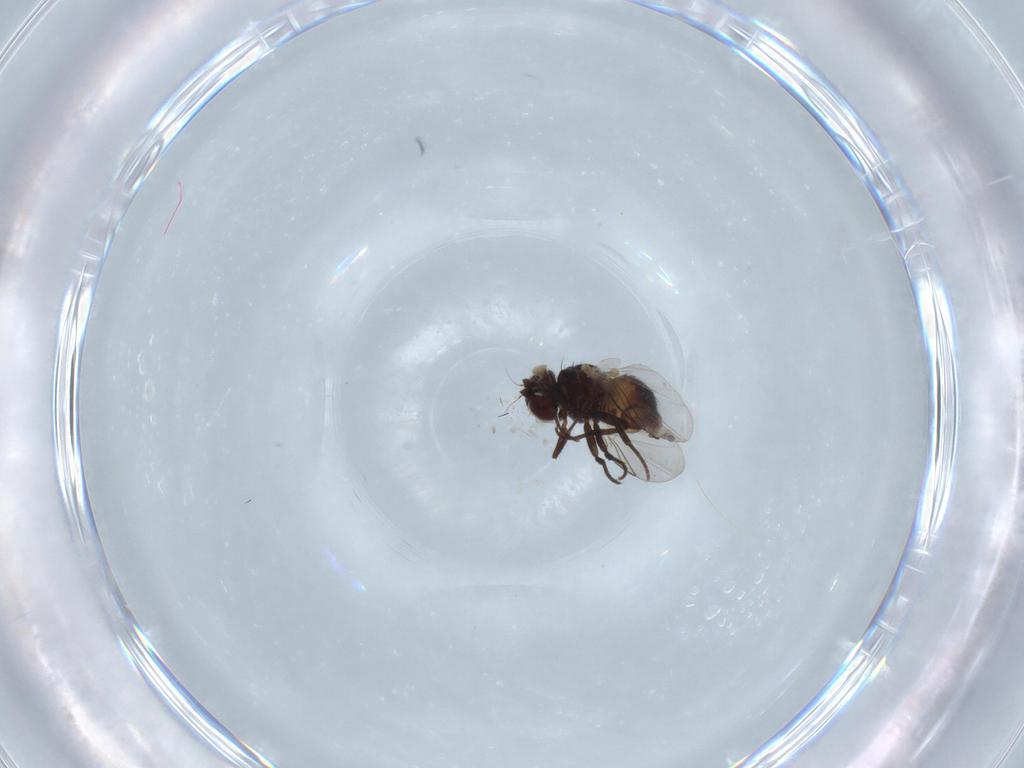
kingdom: Animalia
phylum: Arthropoda
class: Insecta
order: Diptera
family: Chironomidae
